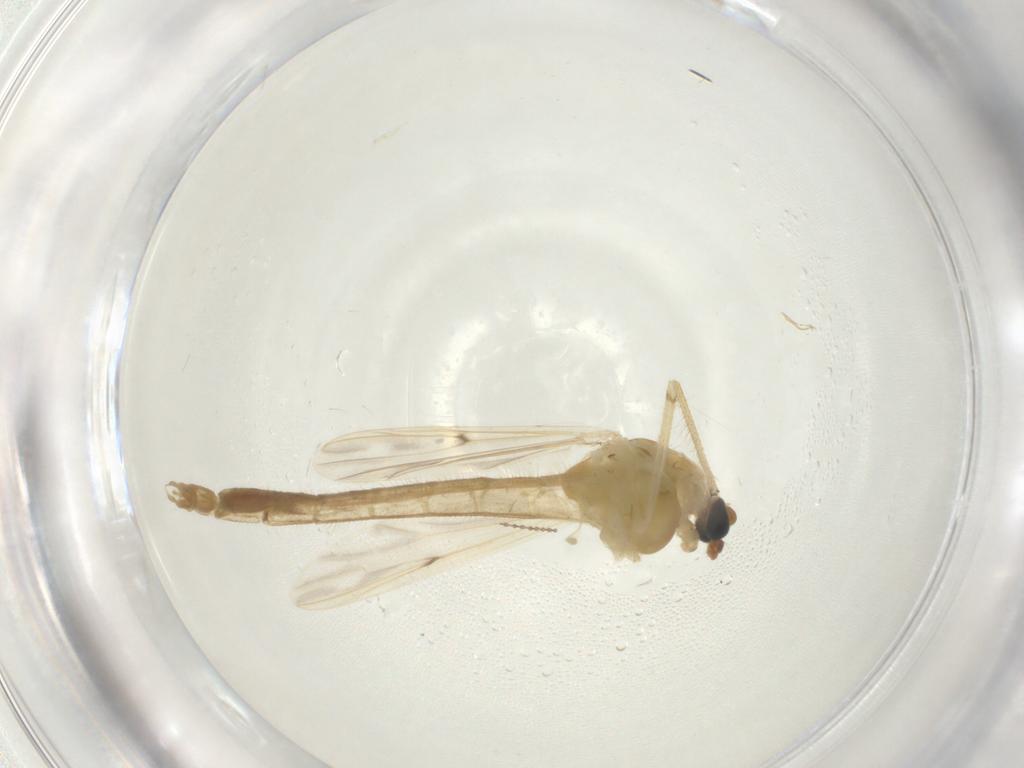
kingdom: Animalia
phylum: Arthropoda
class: Insecta
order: Diptera
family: Chironomidae
